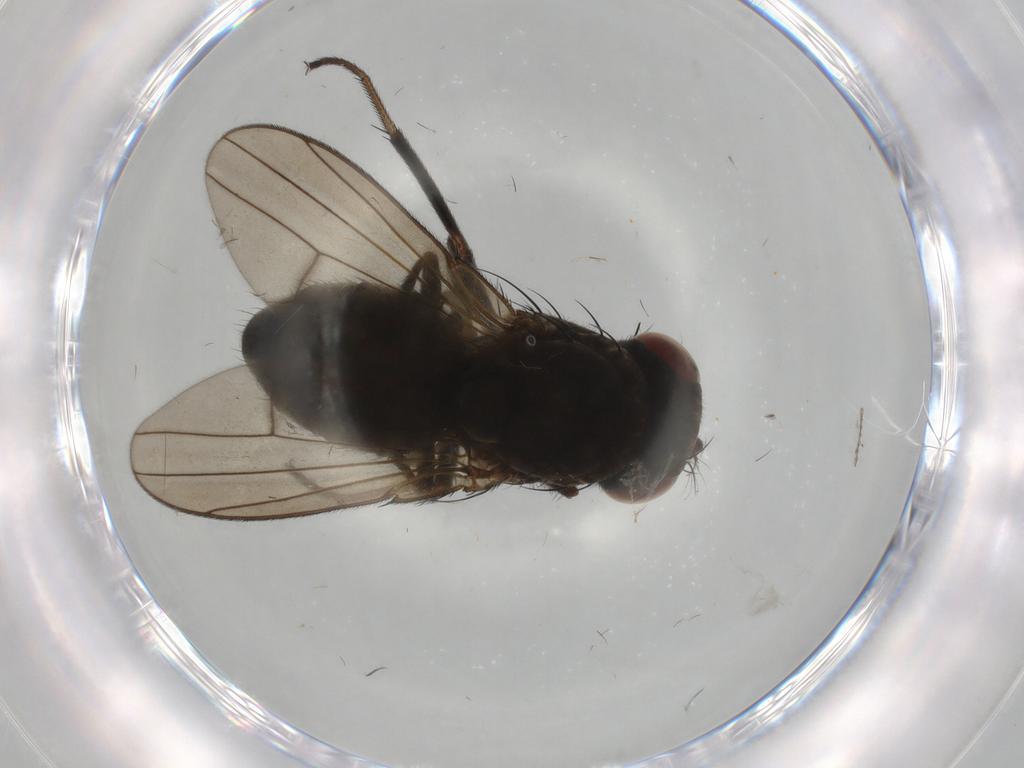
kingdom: Animalia
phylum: Arthropoda
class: Insecta
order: Diptera
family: Ephydridae
